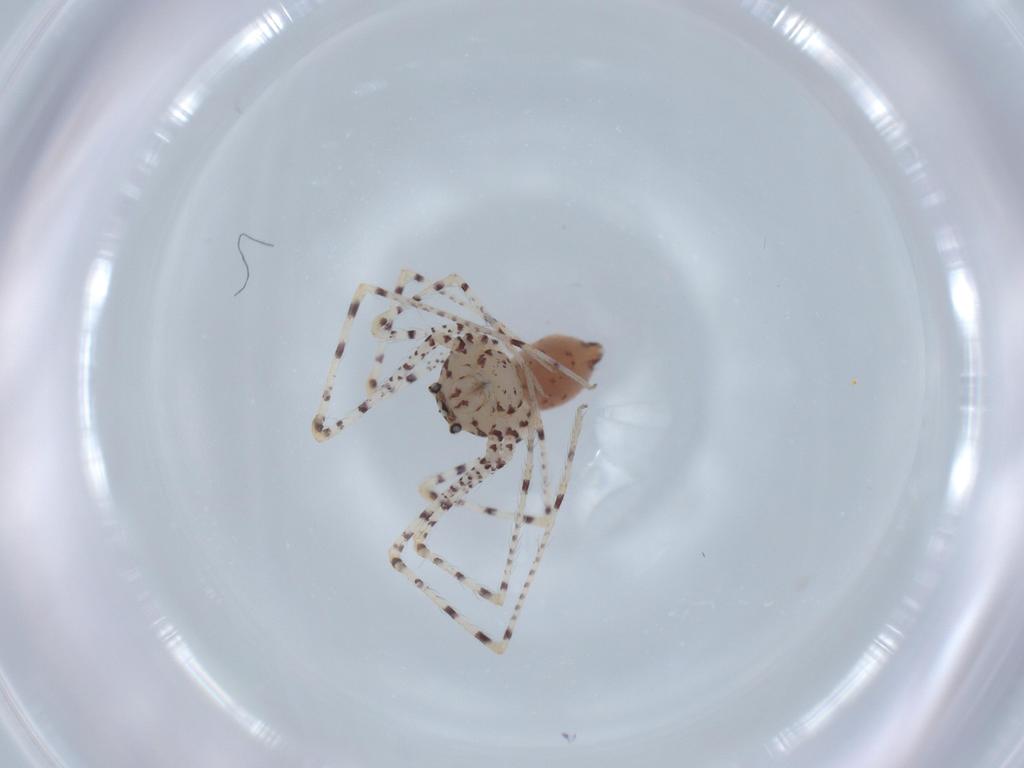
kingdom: Animalia
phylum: Arthropoda
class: Arachnida
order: Araneae
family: Scytodidae
